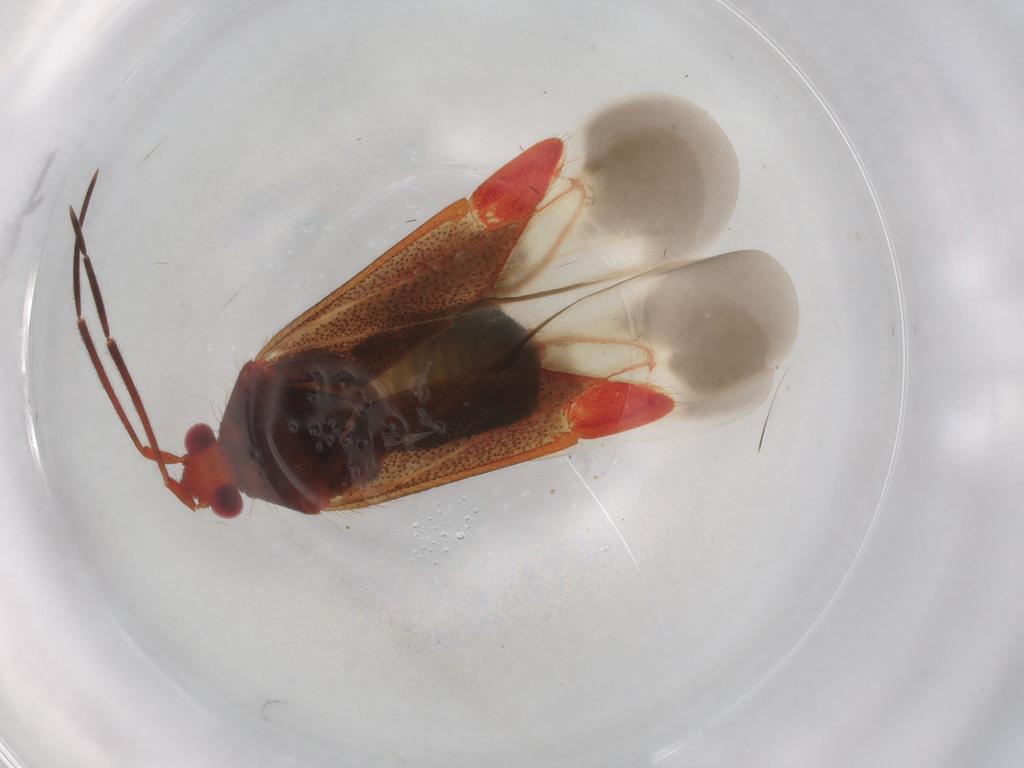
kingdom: Animalia
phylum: Arthropoda
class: Insecta
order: Hemiptera
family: Miridae
